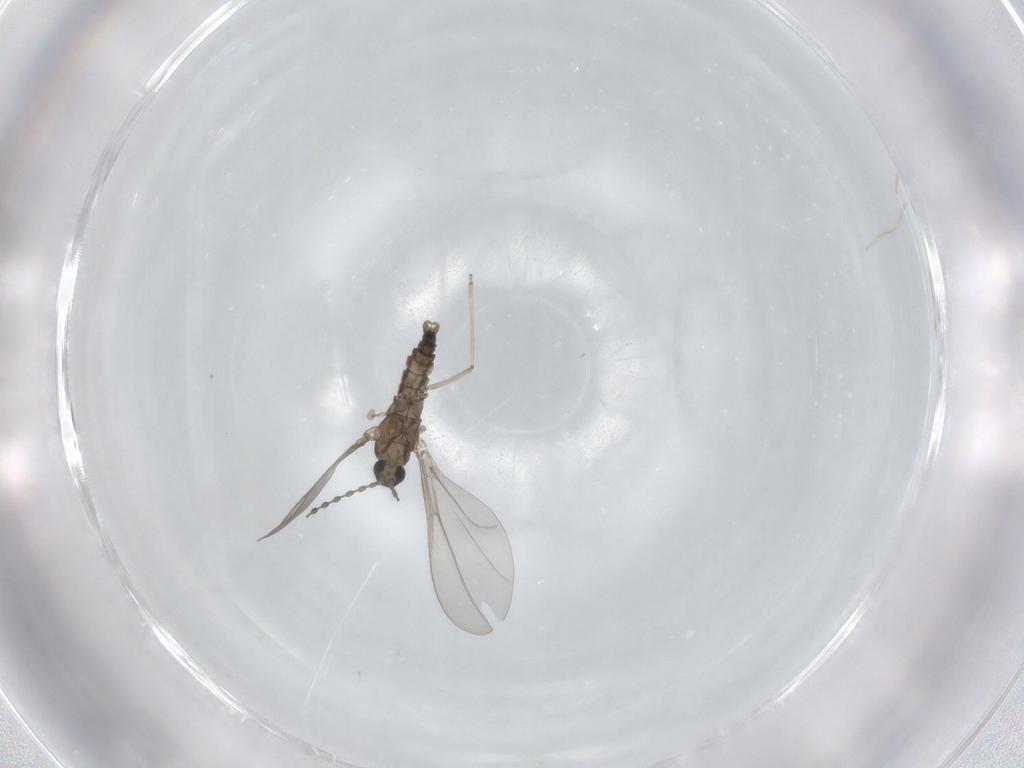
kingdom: Animalia
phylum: Arthropoda
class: Insecta
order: Diptera
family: Cecidomyiidae
